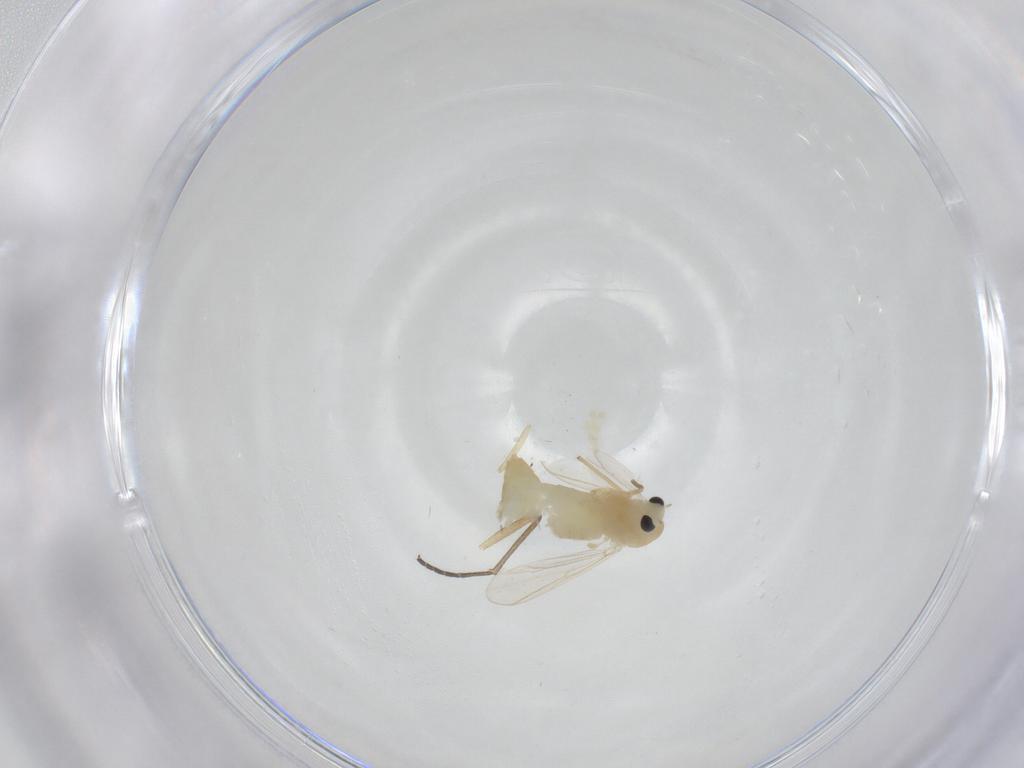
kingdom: Animalia
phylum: Arthropoda
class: Insecta
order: Diptera
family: Chironomidae
